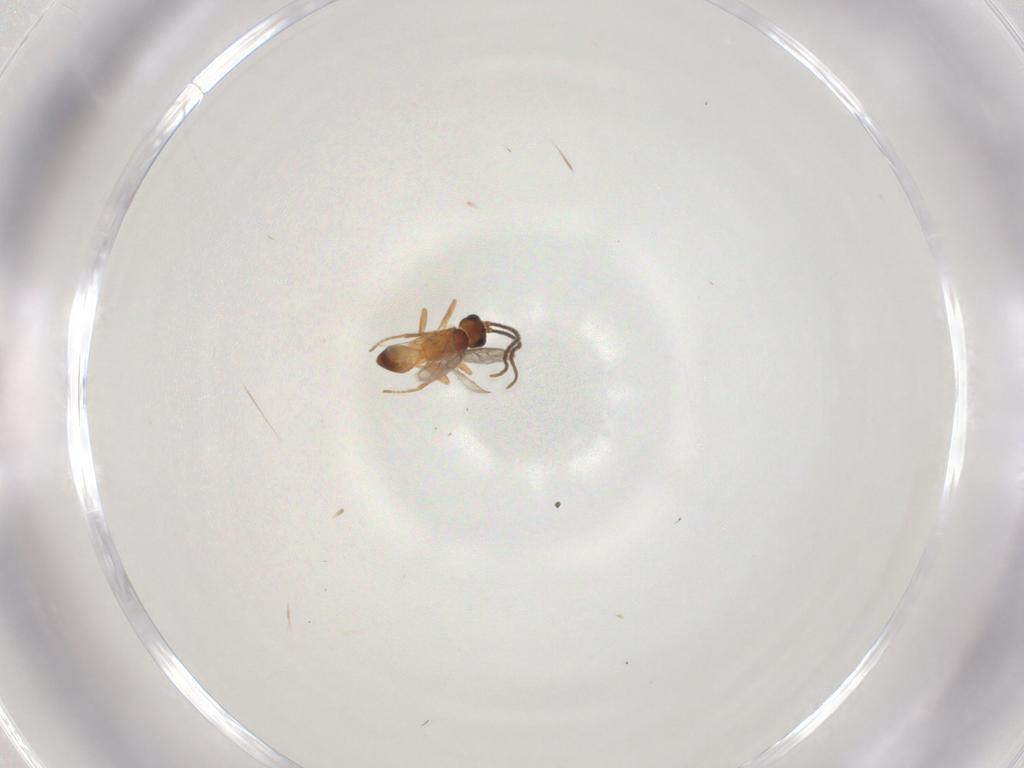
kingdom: Animalia
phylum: Arthropoda
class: Insecta
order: Hymenoptera
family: Braconidae
